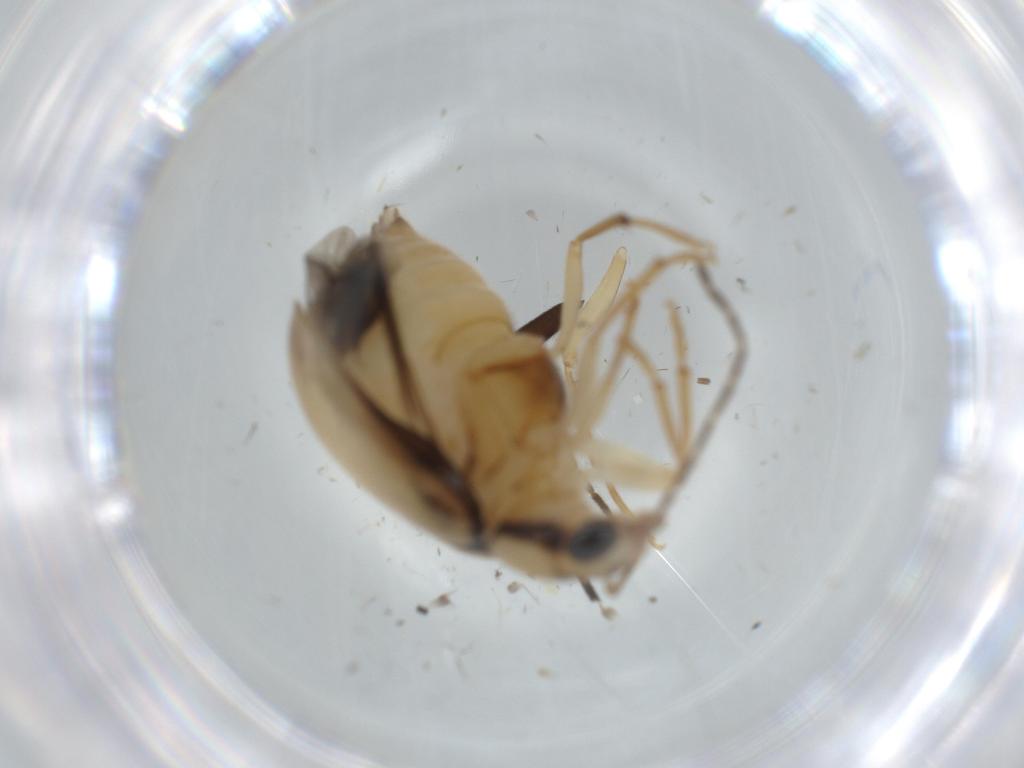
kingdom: Animalia
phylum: Arthropoda
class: Insecta
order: Coleoptera
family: Chrysomelidae
